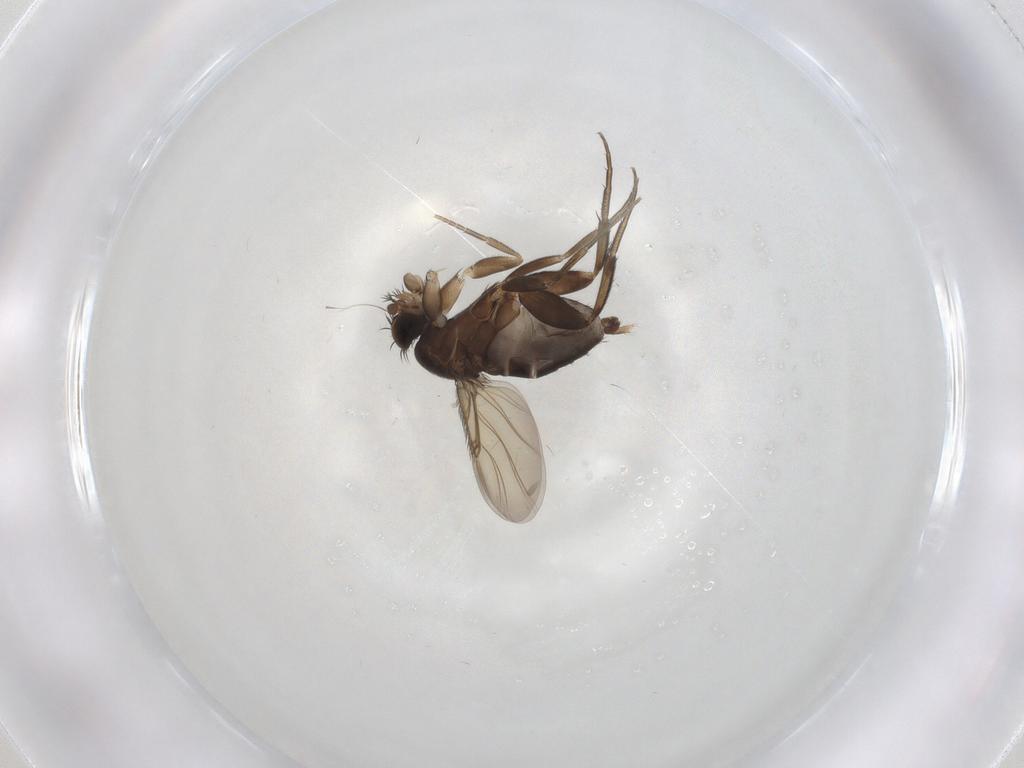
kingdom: Animalia
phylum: Arthropoda
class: Insecta
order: Diptera
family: Phoridae
